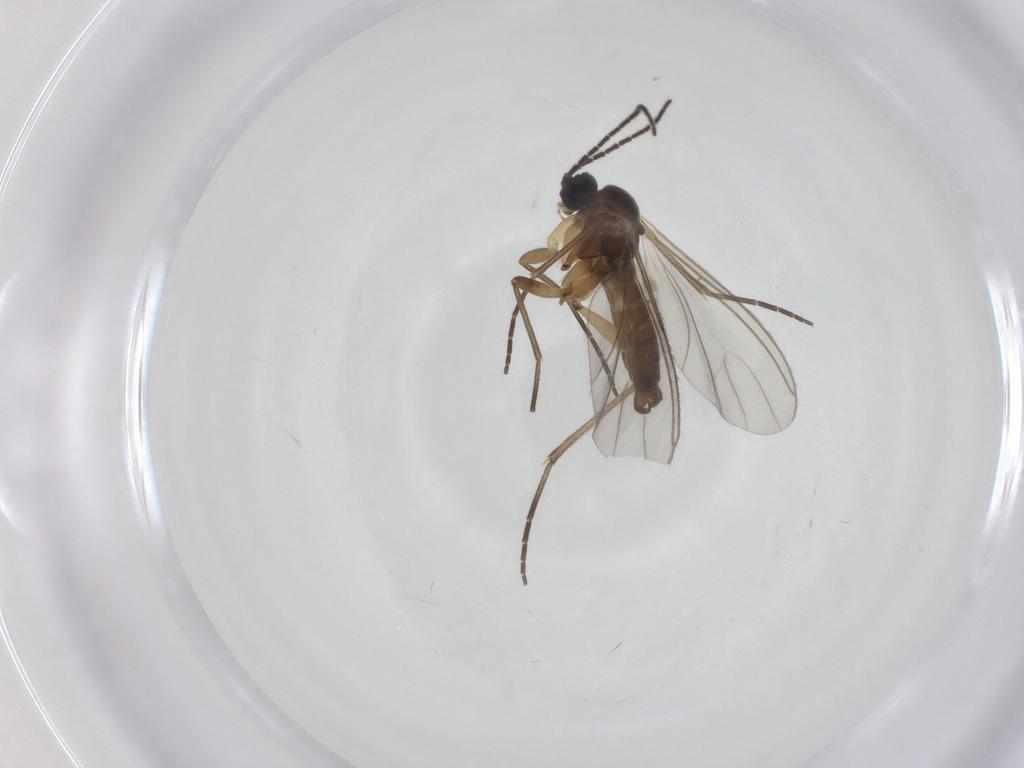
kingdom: Animalia
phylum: Arthropoda
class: Insecta
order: Diptera
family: Sciaridae
